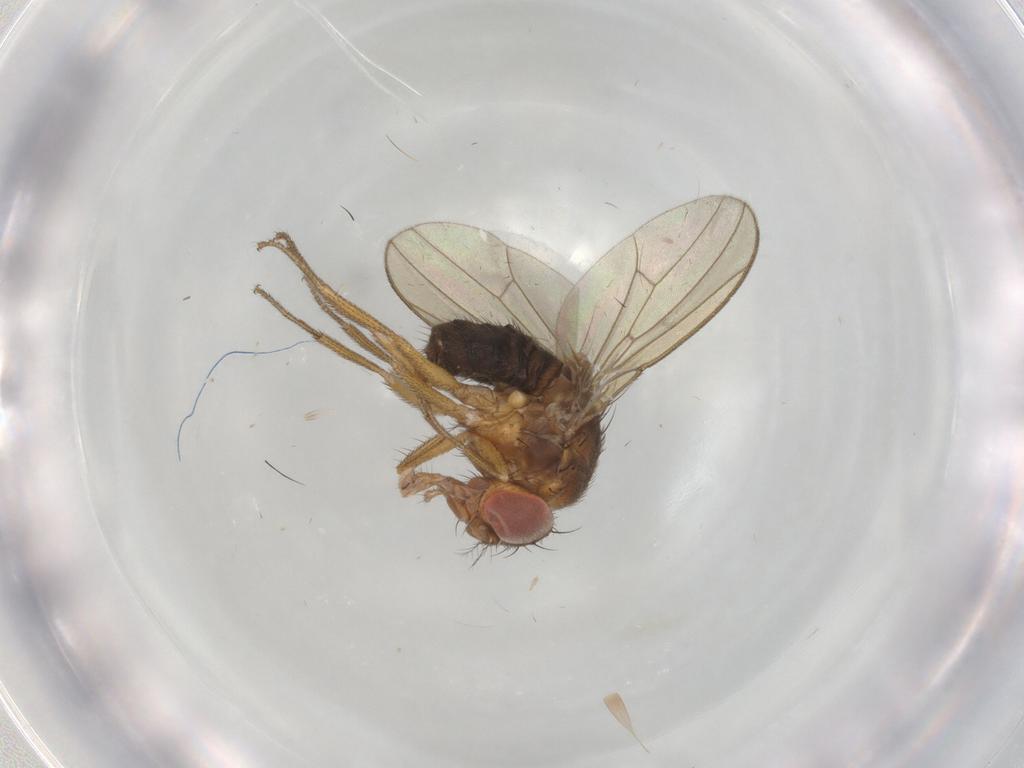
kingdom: Animalia
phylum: Arthropoda
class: Insecta
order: Diptera
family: Drosophilidae
